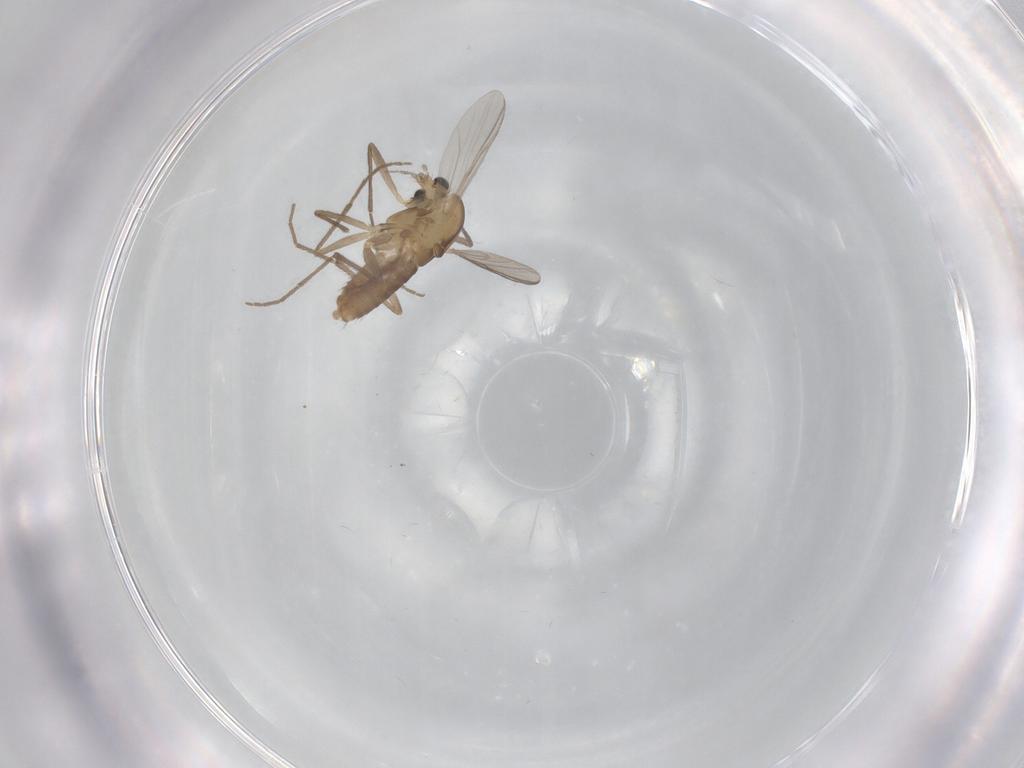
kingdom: Animalia
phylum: Arthropoda
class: Insecta
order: Diptera
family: Chironomidae
